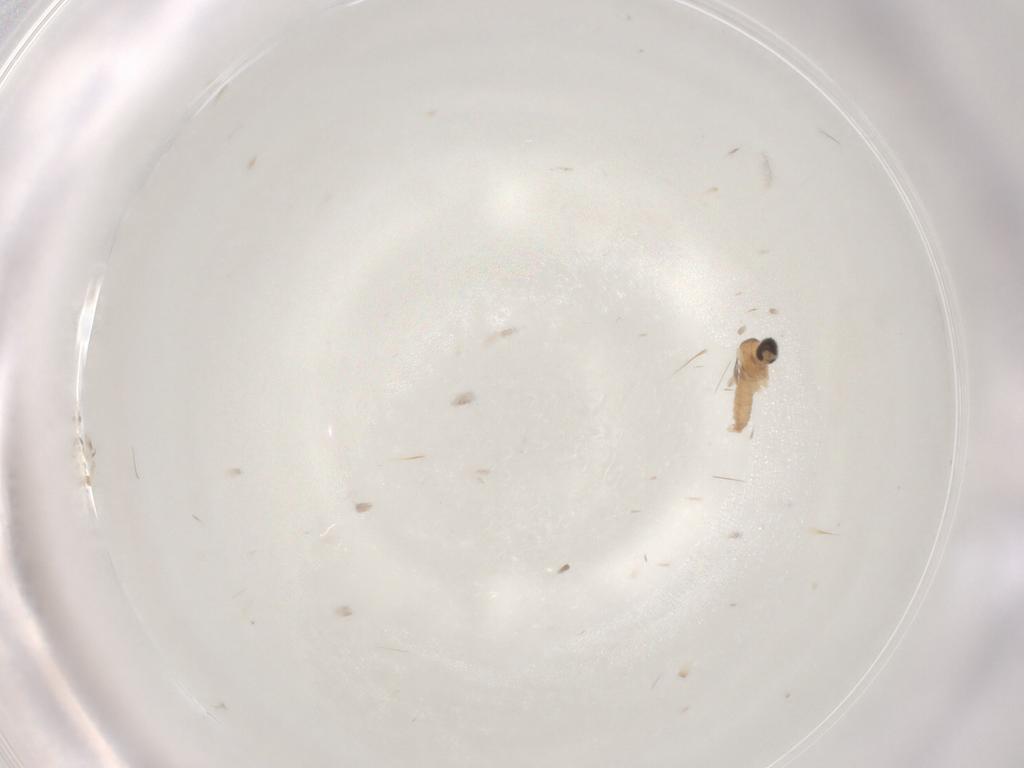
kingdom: Animalia
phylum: Arthropoda
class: Insecta
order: Diptera
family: Cecidomyiidae
